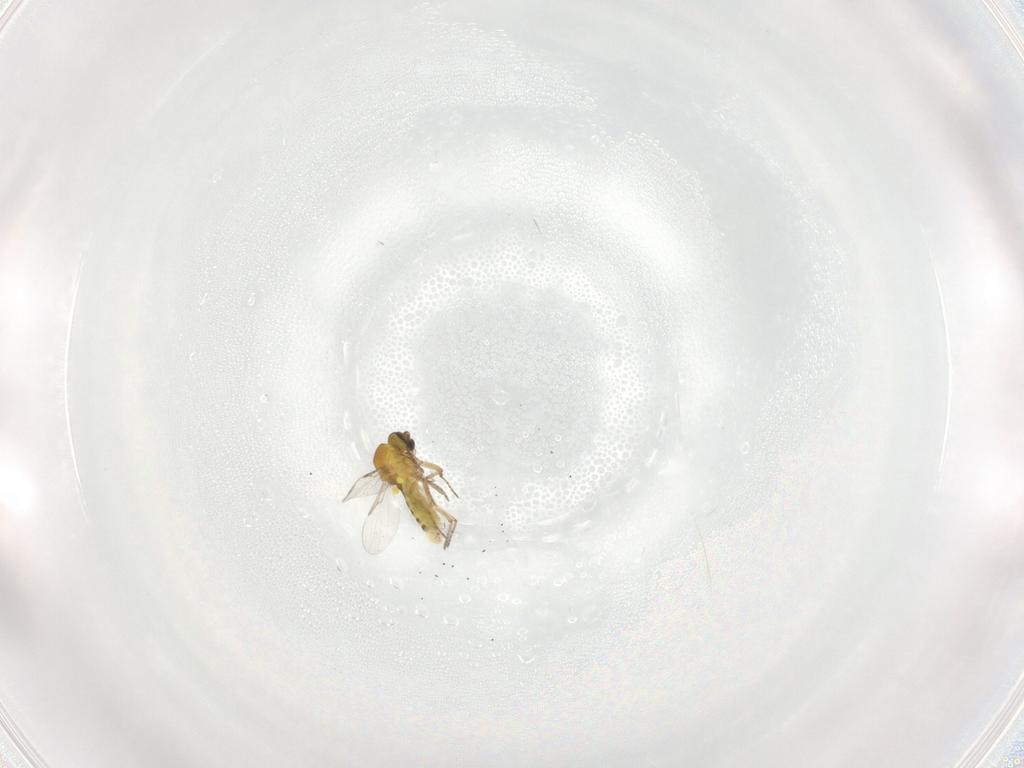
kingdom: Animalia
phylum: Arthropoda
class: Insecta
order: Diptera
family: Ceratopogonidae
